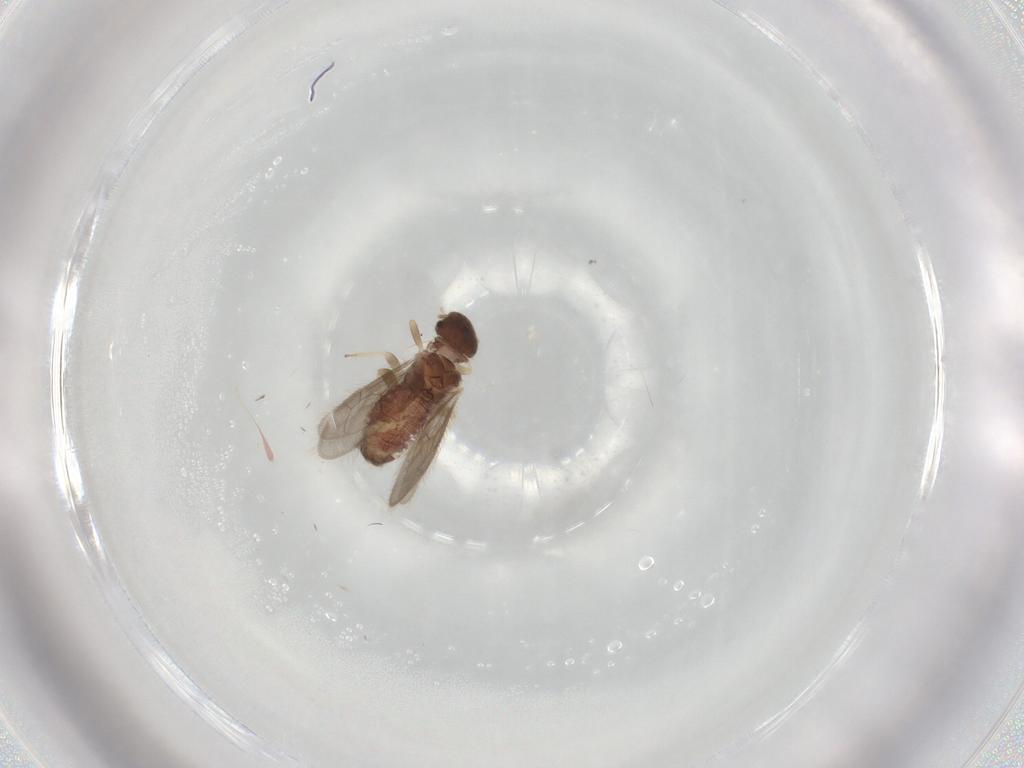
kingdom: Animalia
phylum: Arthropoda
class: Insecta
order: Psocodea
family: Archipsocidae
